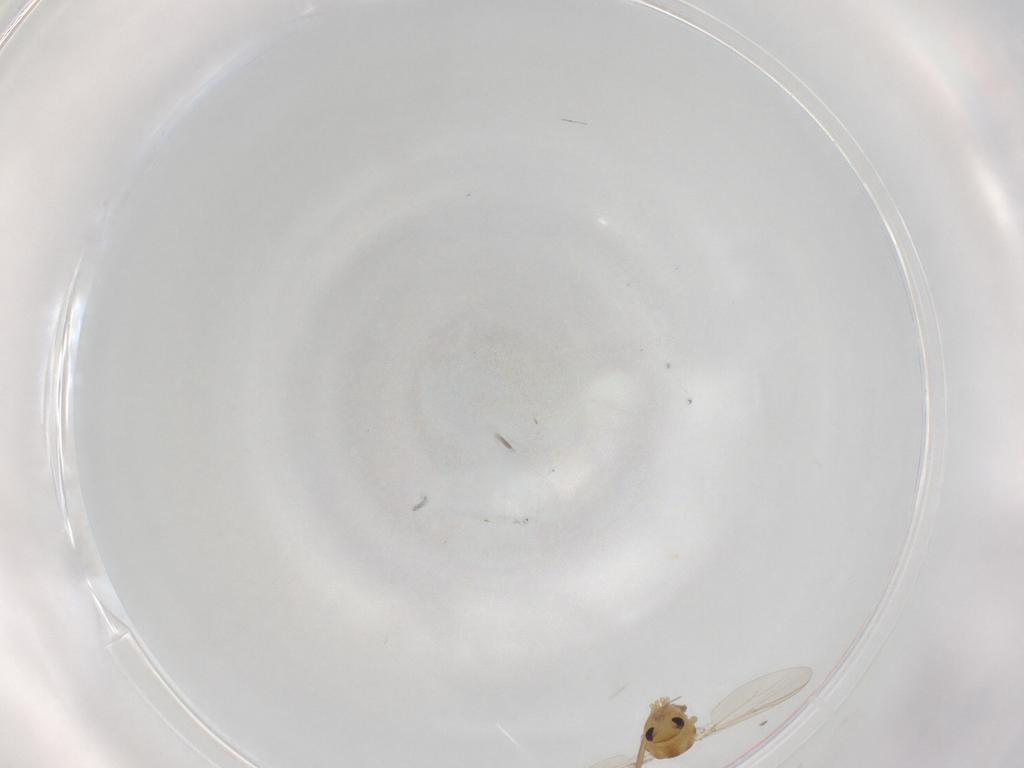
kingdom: Animalia
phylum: Arthropoda
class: Insecta
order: Diptera
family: Chironomidae
